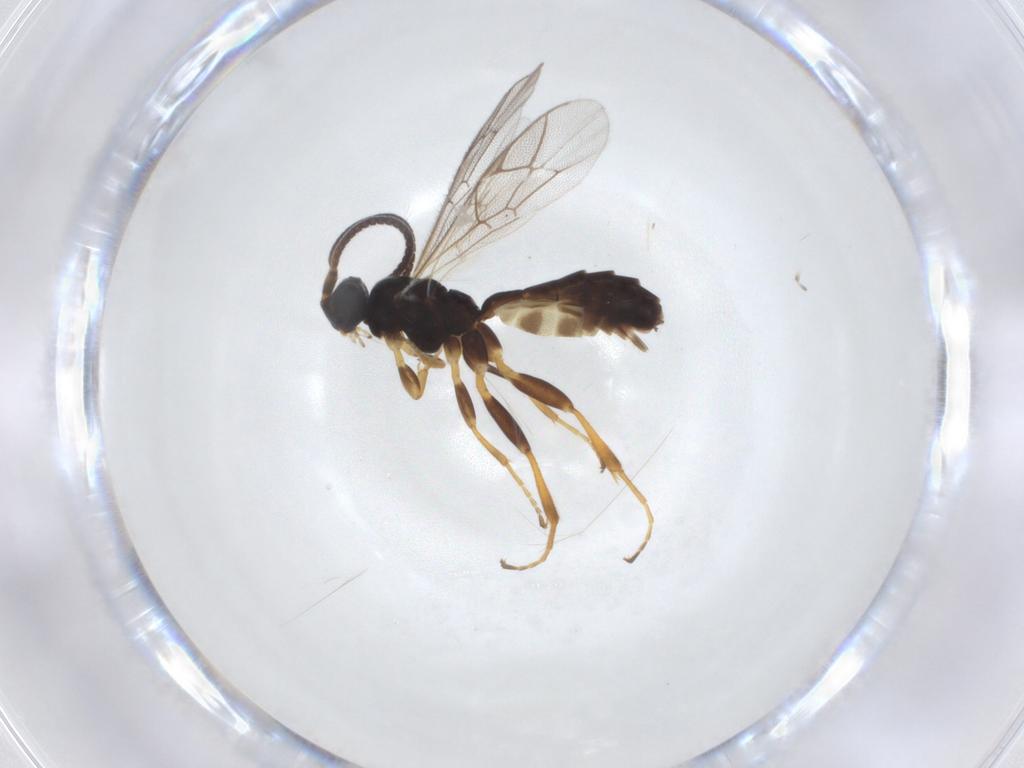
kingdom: Animalia
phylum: Arthropoda
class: Insecta
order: Hymenoptera
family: Ichneumonidae
